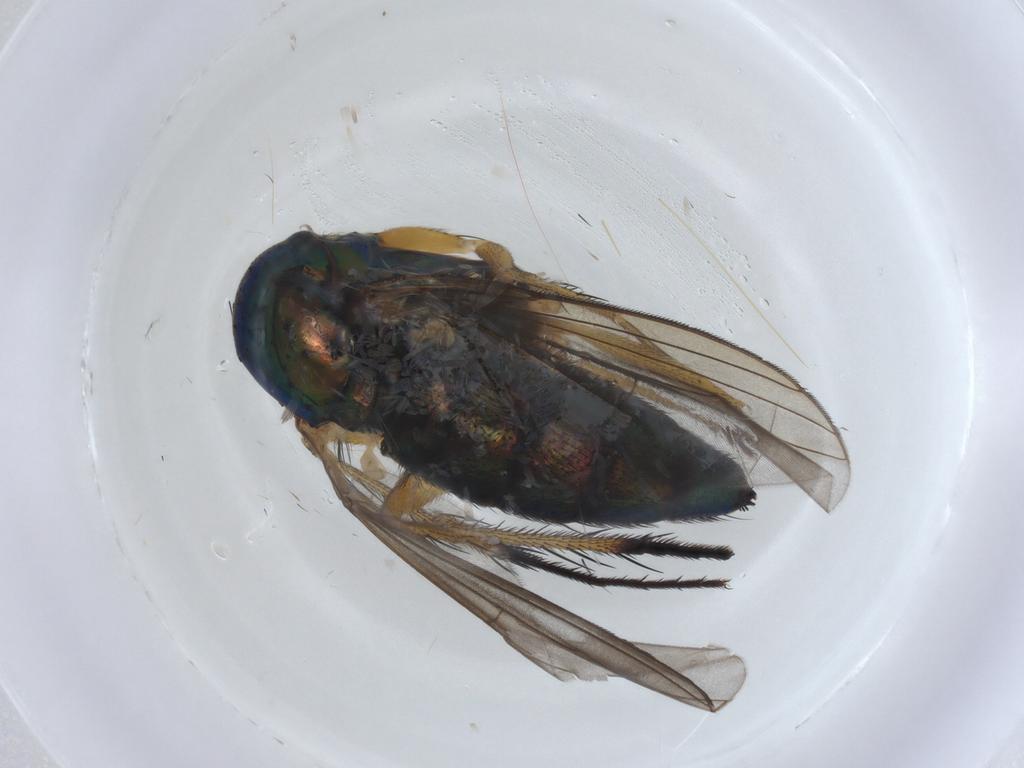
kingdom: Animalia
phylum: Arthropoda
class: Insecta
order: Diptera
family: Dolichopodidae
